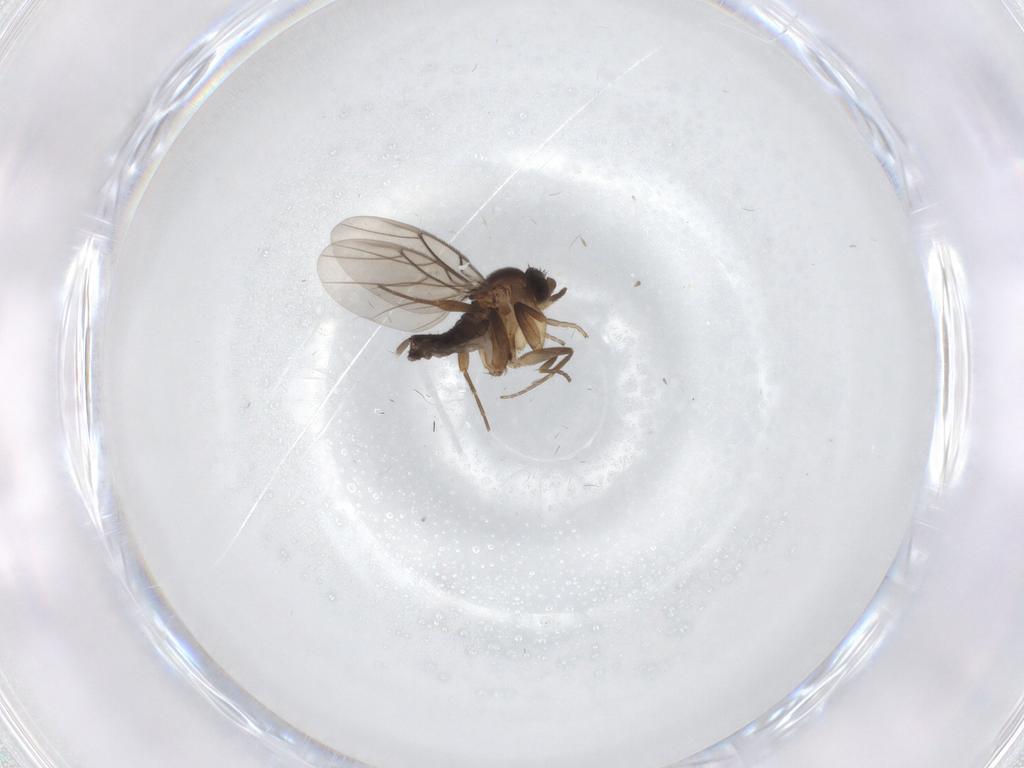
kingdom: Animalia
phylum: Arthropoda
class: Insecta
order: Diptera
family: Phoridae
